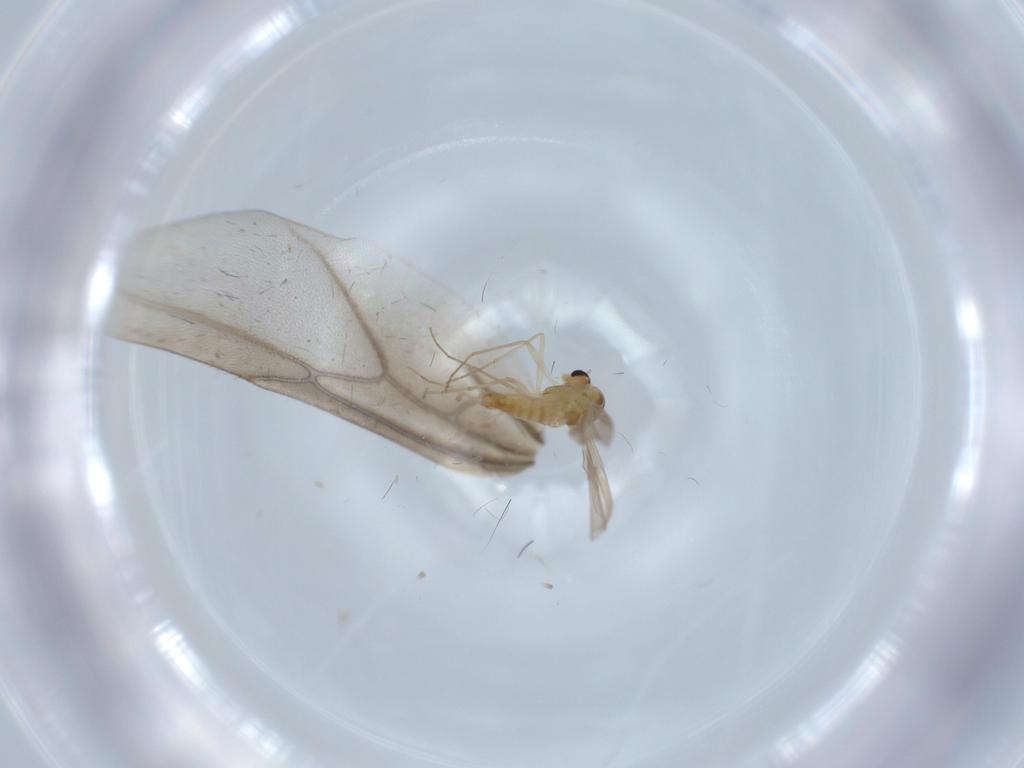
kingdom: Animalia
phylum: Arthropoda
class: Insecta
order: Diptera
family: Chironomidae
